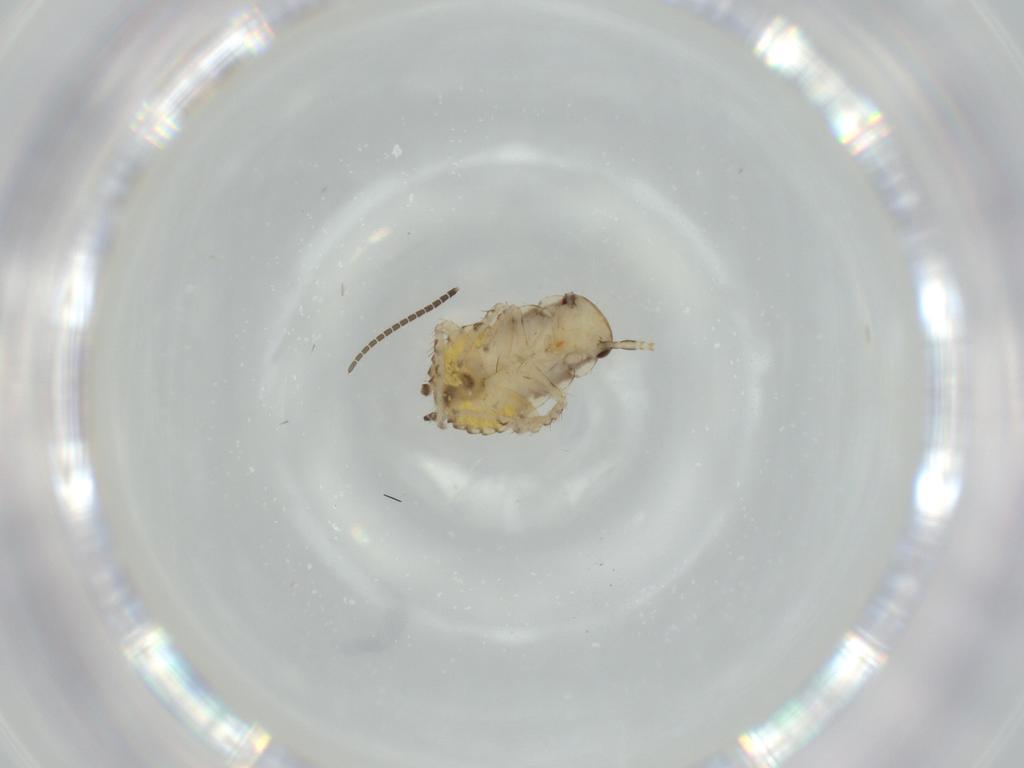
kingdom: Animalia
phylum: Arthropoda
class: Insecta
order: Blattodea
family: Ectobiidae
